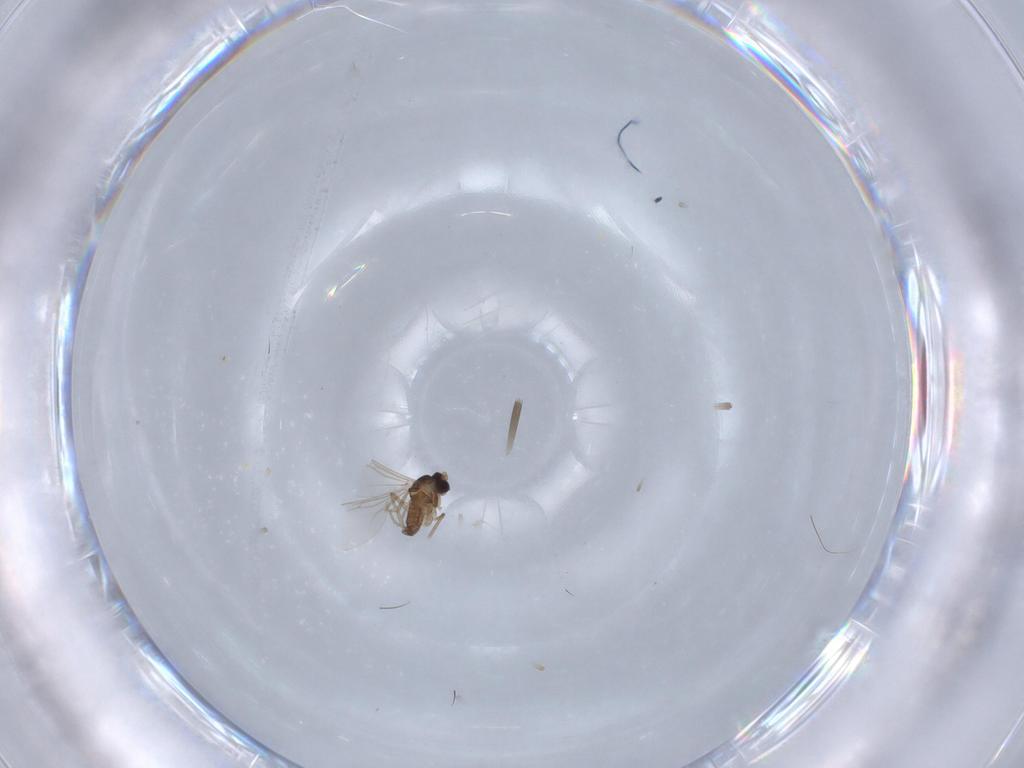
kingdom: Animalia
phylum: Arthropoda
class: Insecta
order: Diptera
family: Cecidomyiidae
